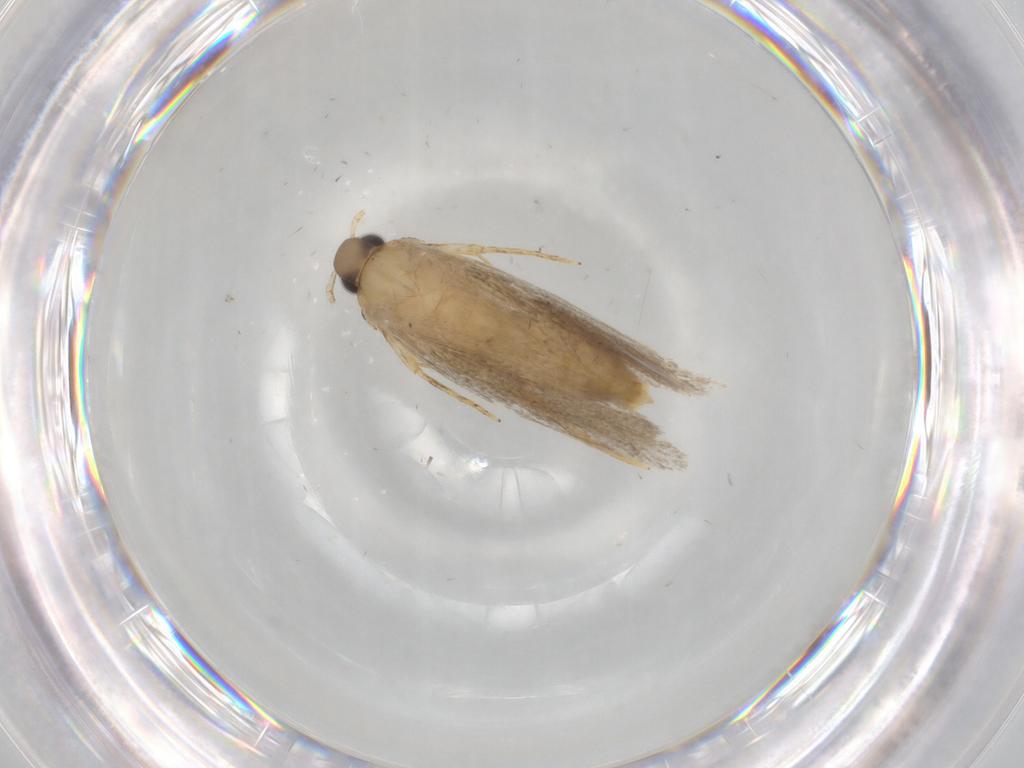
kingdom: Animalia
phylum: Arthropoda
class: Insecta
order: Lepidoptera
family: Autostichidae
